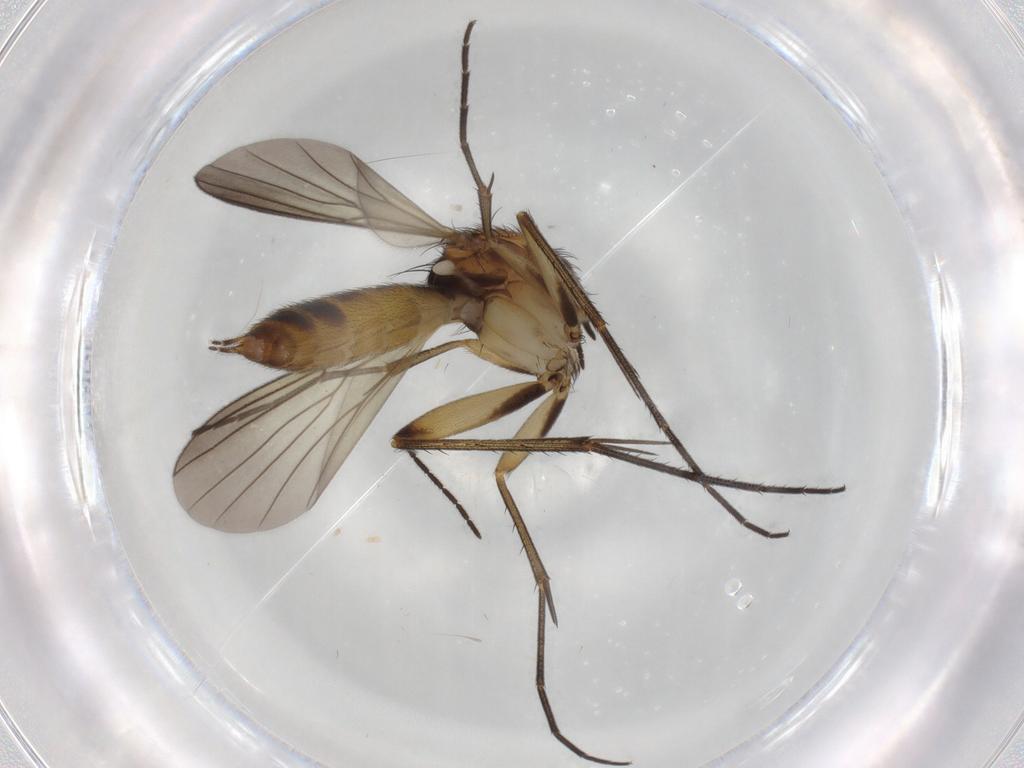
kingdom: Animalia
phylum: Arthropoda
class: Insecta
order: Diptera
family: Mycetophilidae
